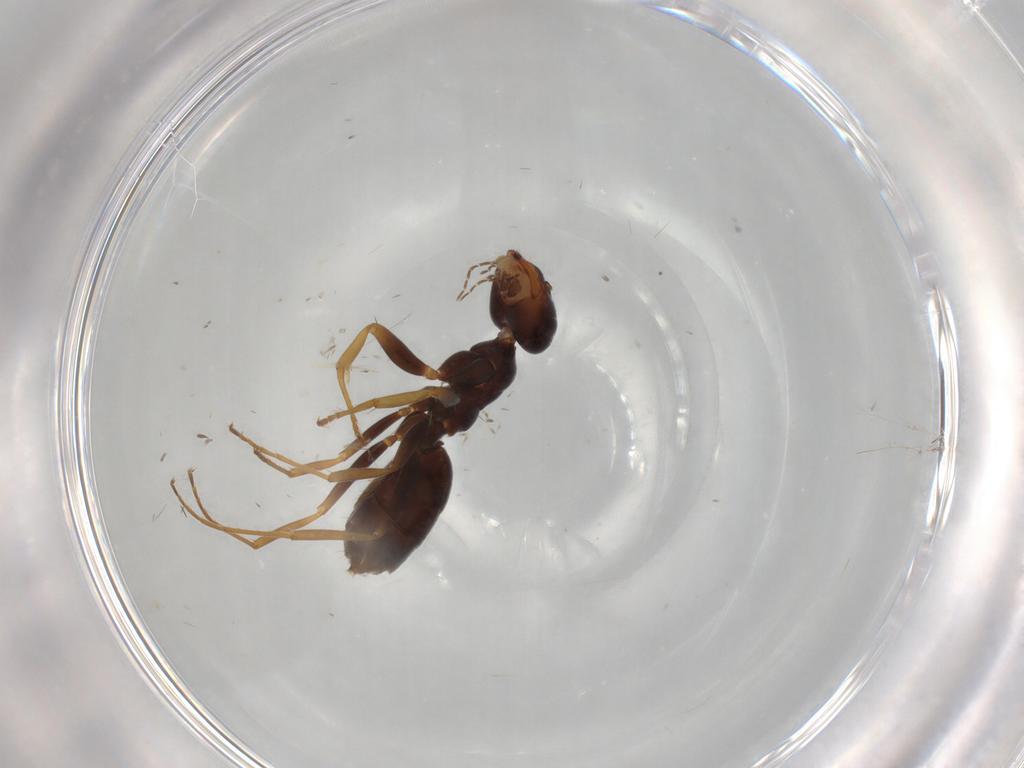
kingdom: Animalia
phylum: Arthropoda
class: Insecta
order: Hymenoptera
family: Formicidae
